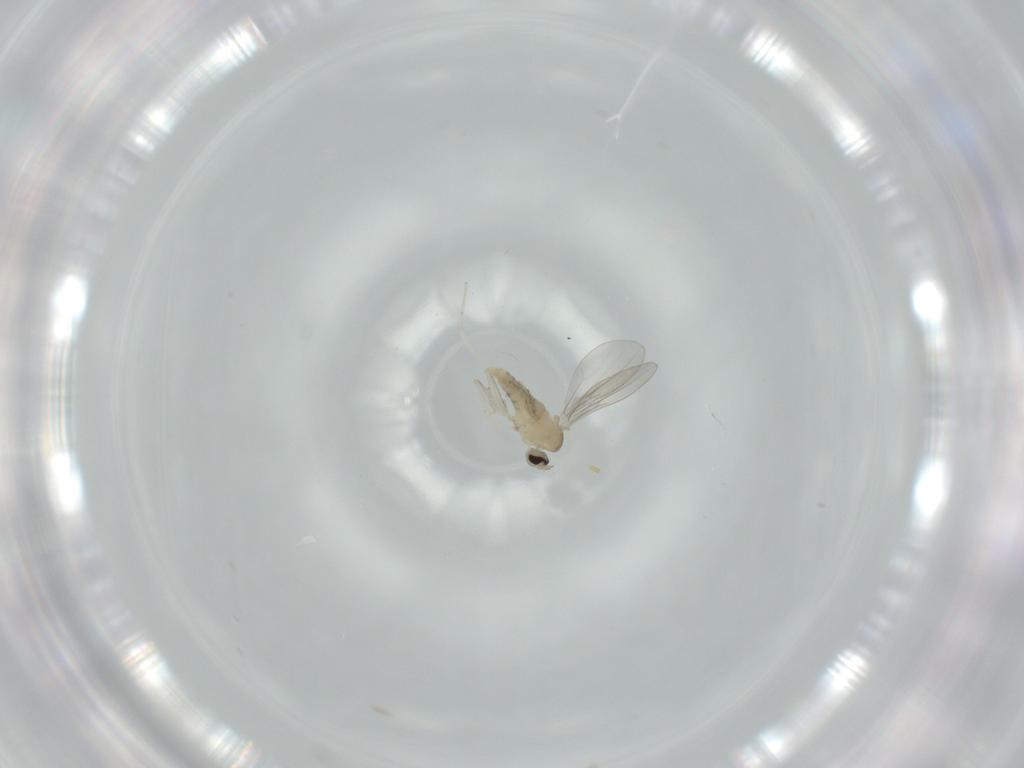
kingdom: Animalia
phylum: Arthropoda
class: Insecta
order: Diptera
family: Cecidomyiidae
